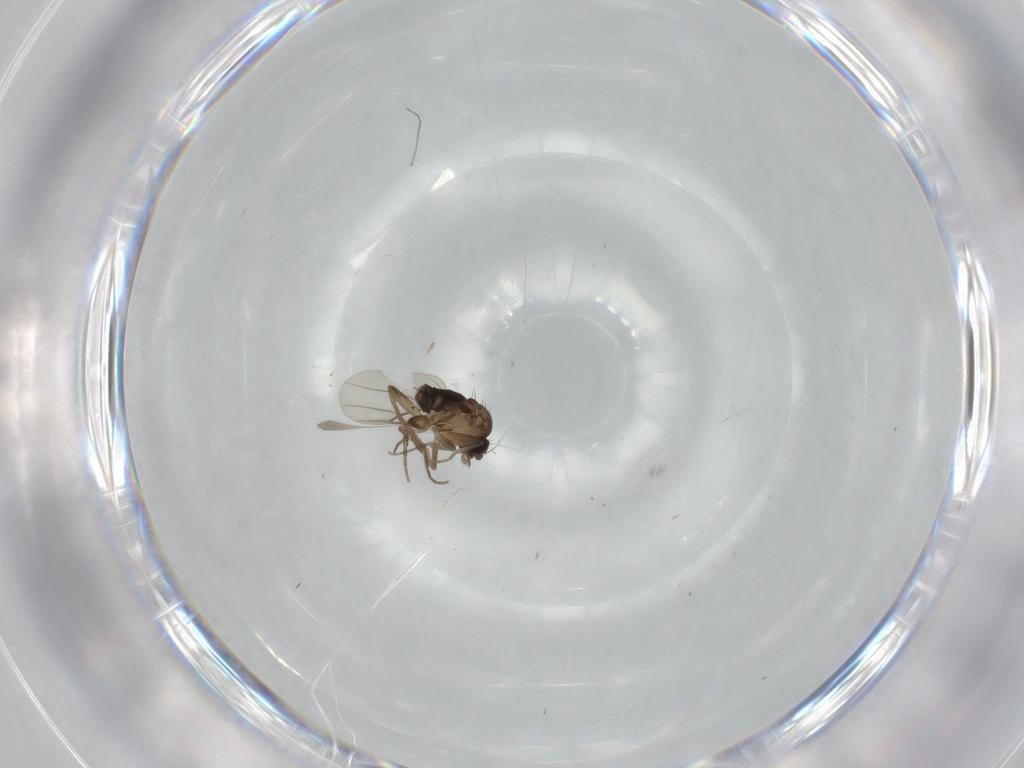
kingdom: Animalia
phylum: Arthropoda
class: Insecta
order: Diptera
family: Phoridae
